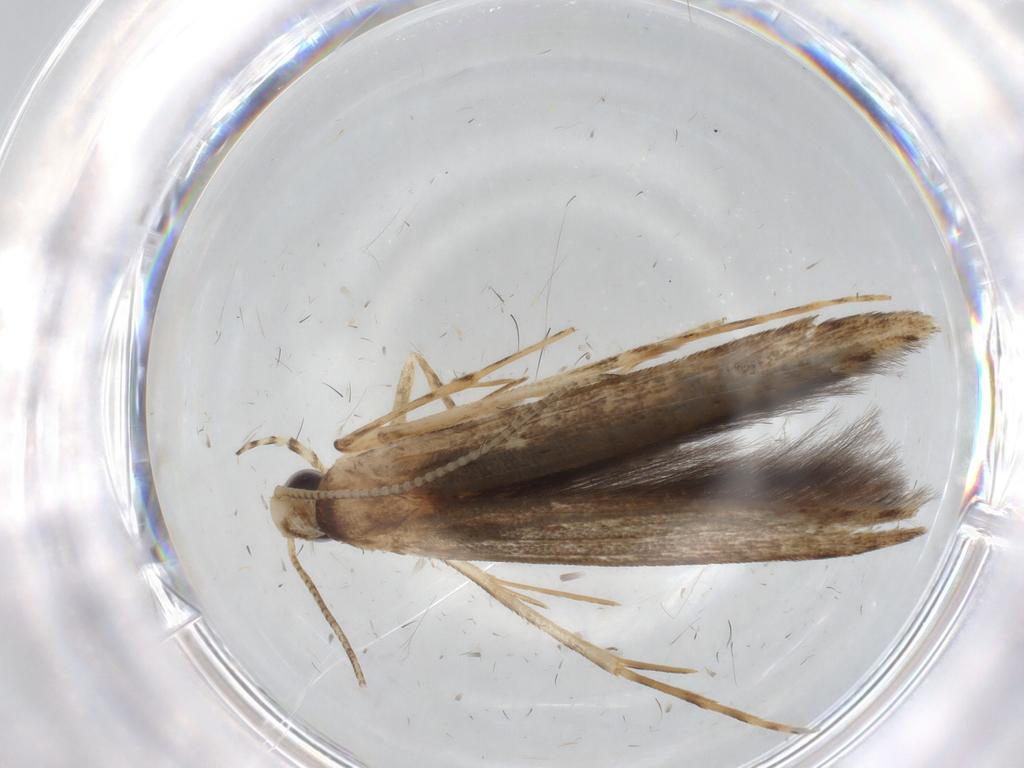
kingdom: Animalia
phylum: Arthropoda
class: Insecta
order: Lepidoptera
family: Batrachedridae
